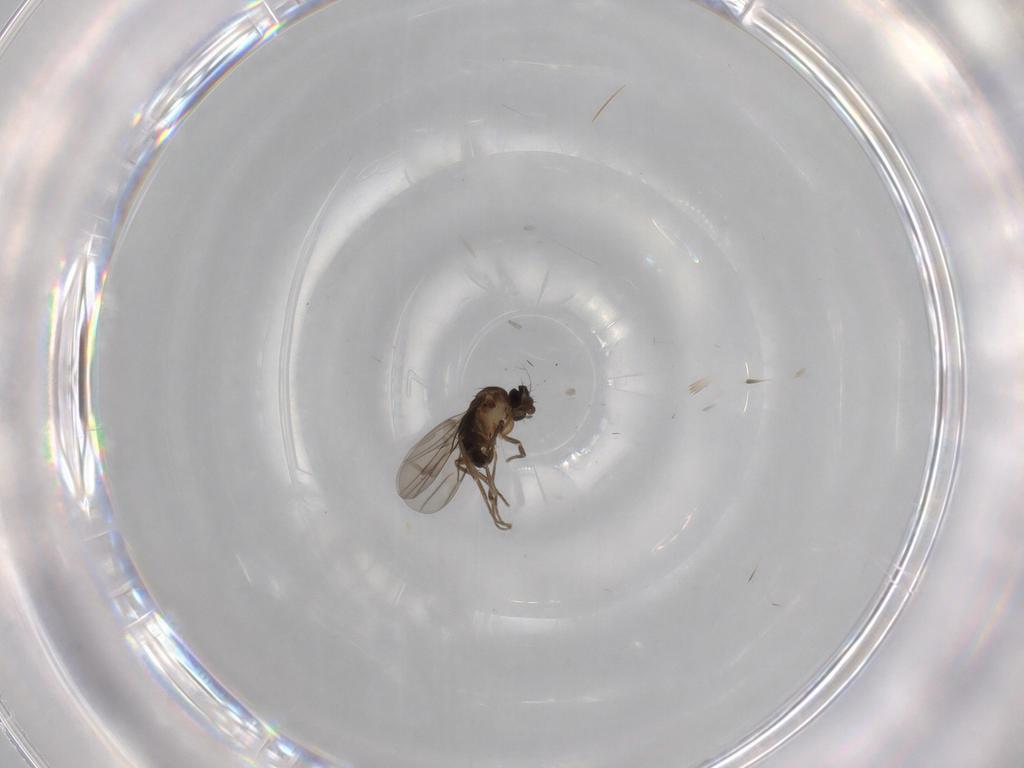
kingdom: Animalia
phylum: Arthropoda
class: Insecta
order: Diptera
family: Phoridae
